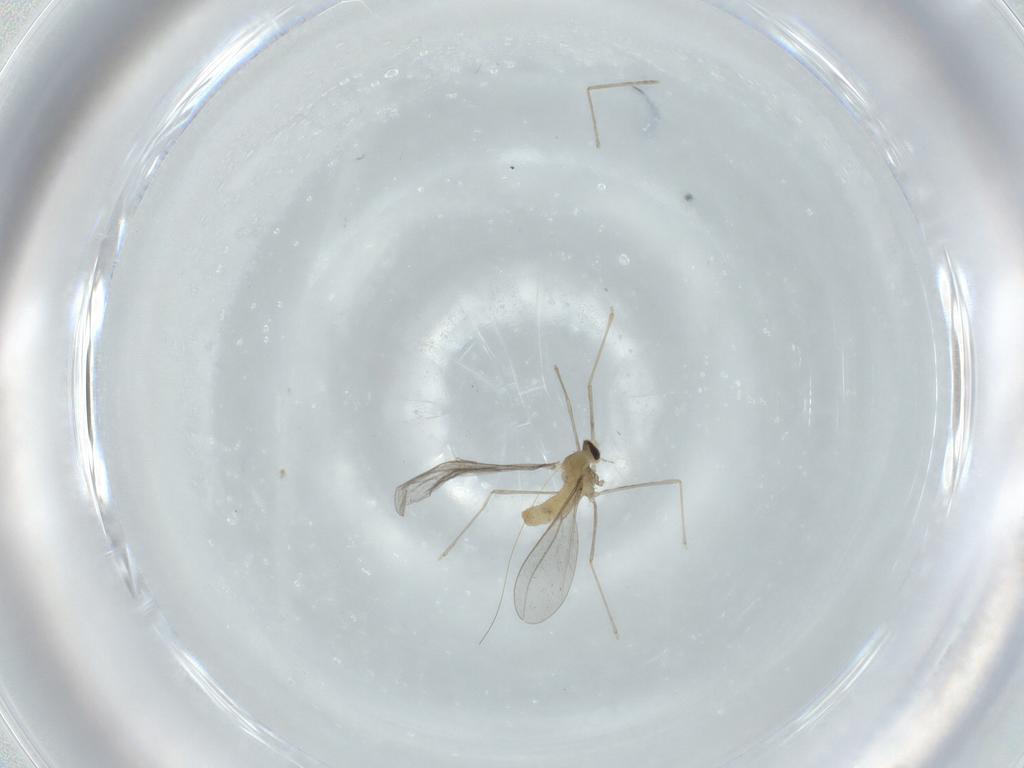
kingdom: Animalia
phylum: Arthropoda
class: Insecta
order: Diptera
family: Cecidomyiidae
